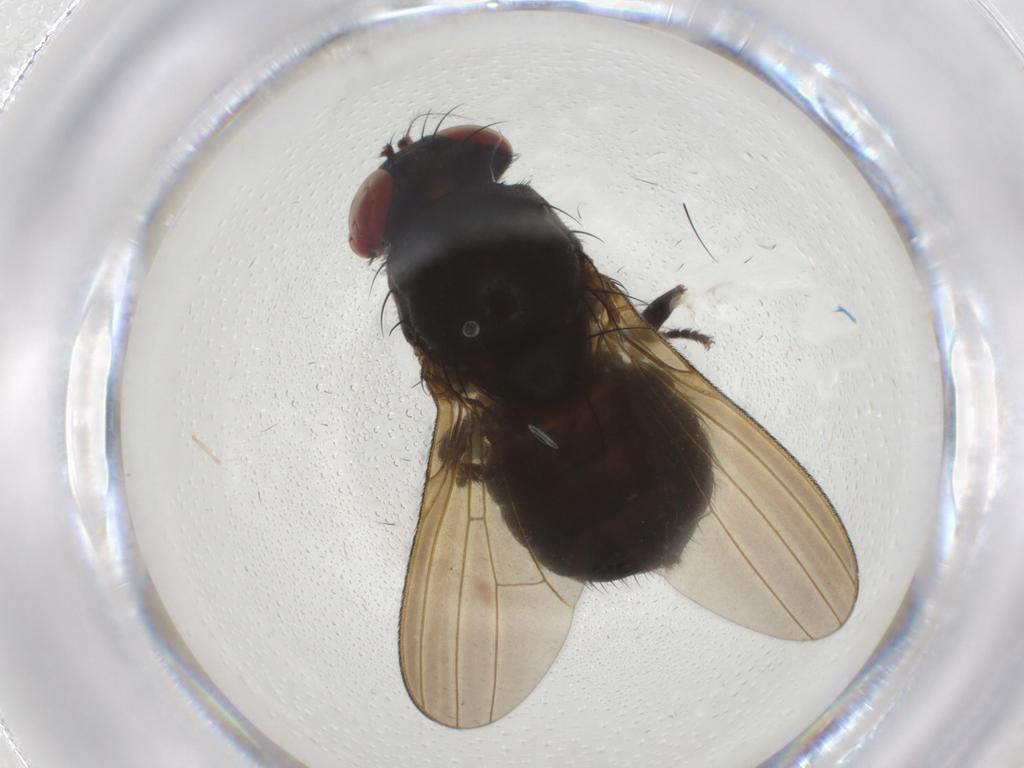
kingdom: Animalia
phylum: Arthropoda
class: Insecta
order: Diptera
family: Lauxaniidae
